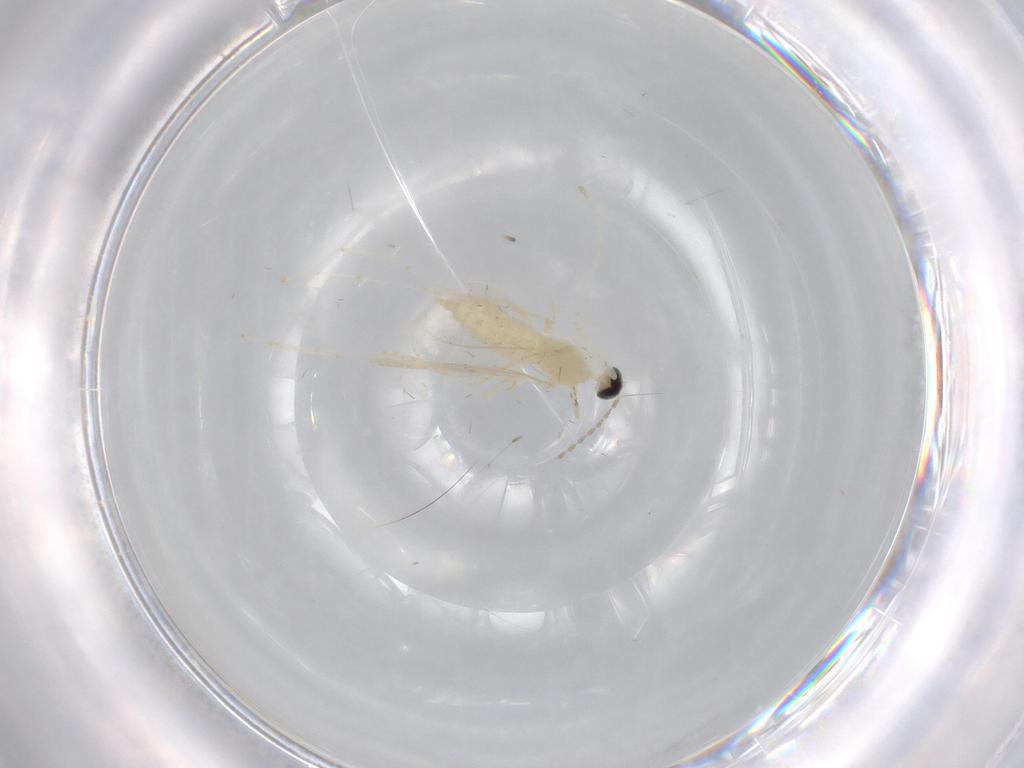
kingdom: Animalia
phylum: Arthropoda
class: Insecta
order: Diptera
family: Cecidomyiidae
